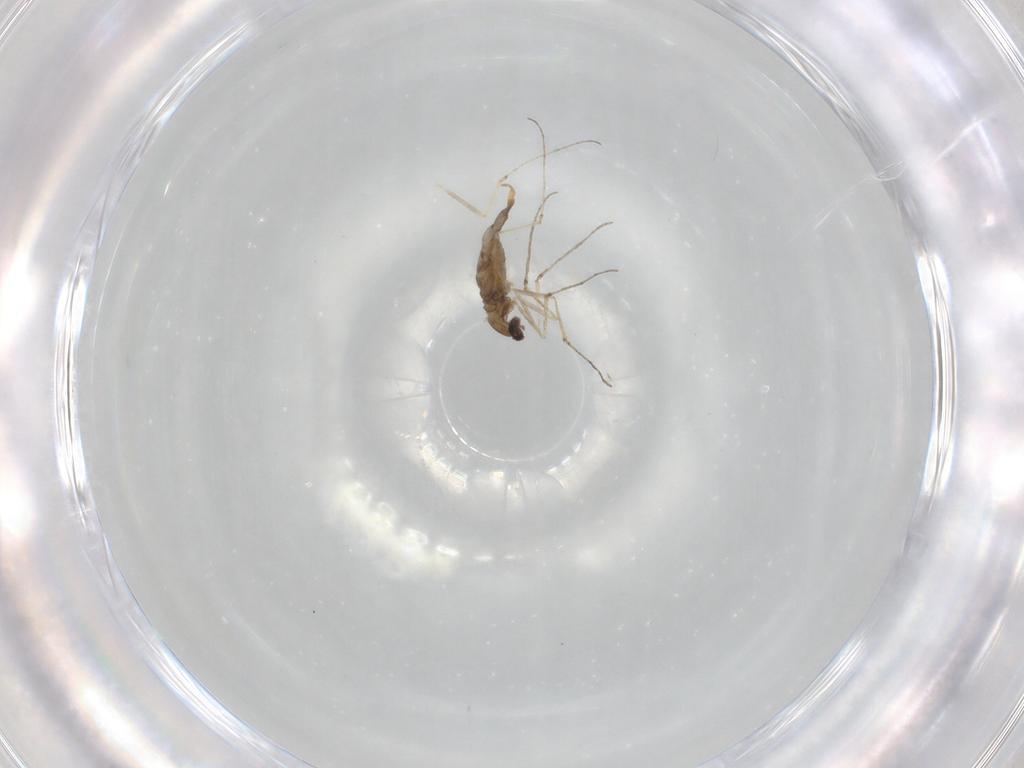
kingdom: Animalia
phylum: Arthropoda
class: Insecta
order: Diptera
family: Cecidomyiidae
